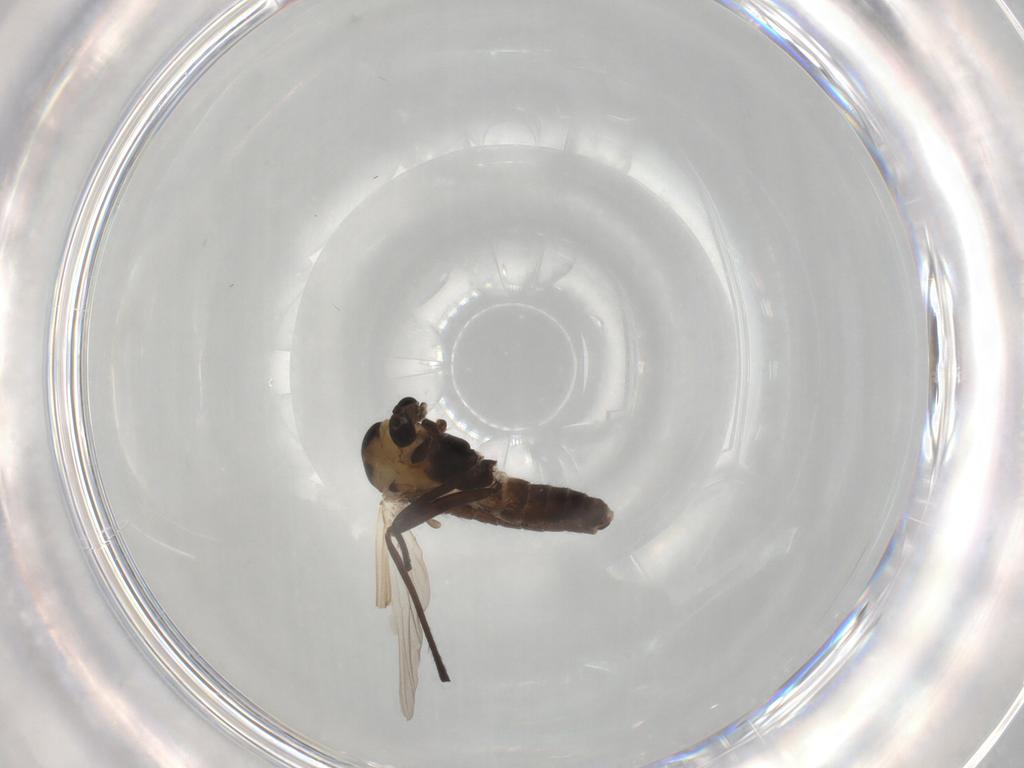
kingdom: Animalia
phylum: Arthropoda
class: Insecta
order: Diptera
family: Chironomidae
